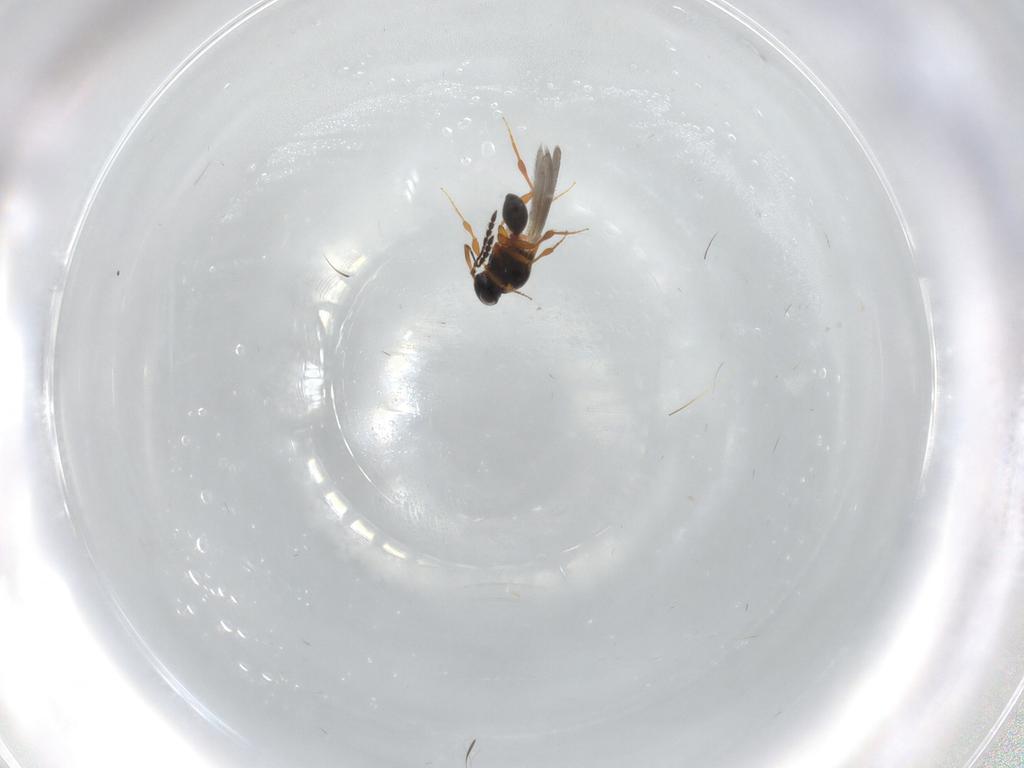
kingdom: Animalia
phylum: Arthropoda
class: Insecta
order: Hymenoptera
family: Platygastridae
